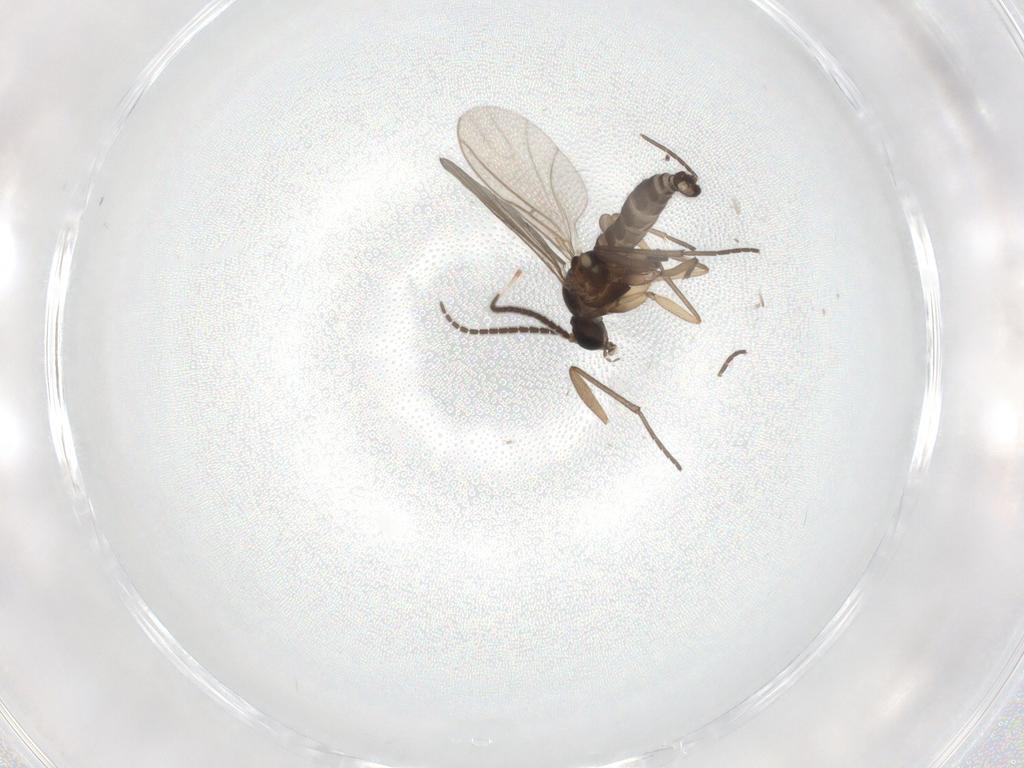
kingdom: Animalia
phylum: Arthropoda
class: Insecta
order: Diptera
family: Sciaridae
